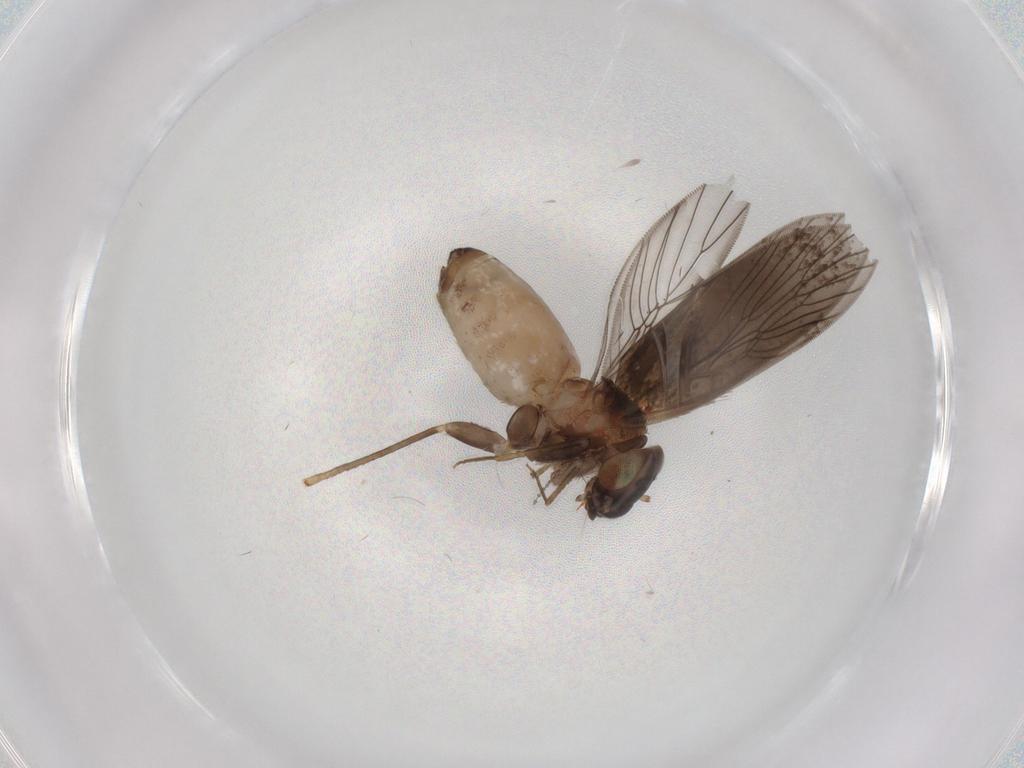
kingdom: Animalia
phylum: Arthropoda
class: Insecta
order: Psocodea
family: Lepidopsocidae
